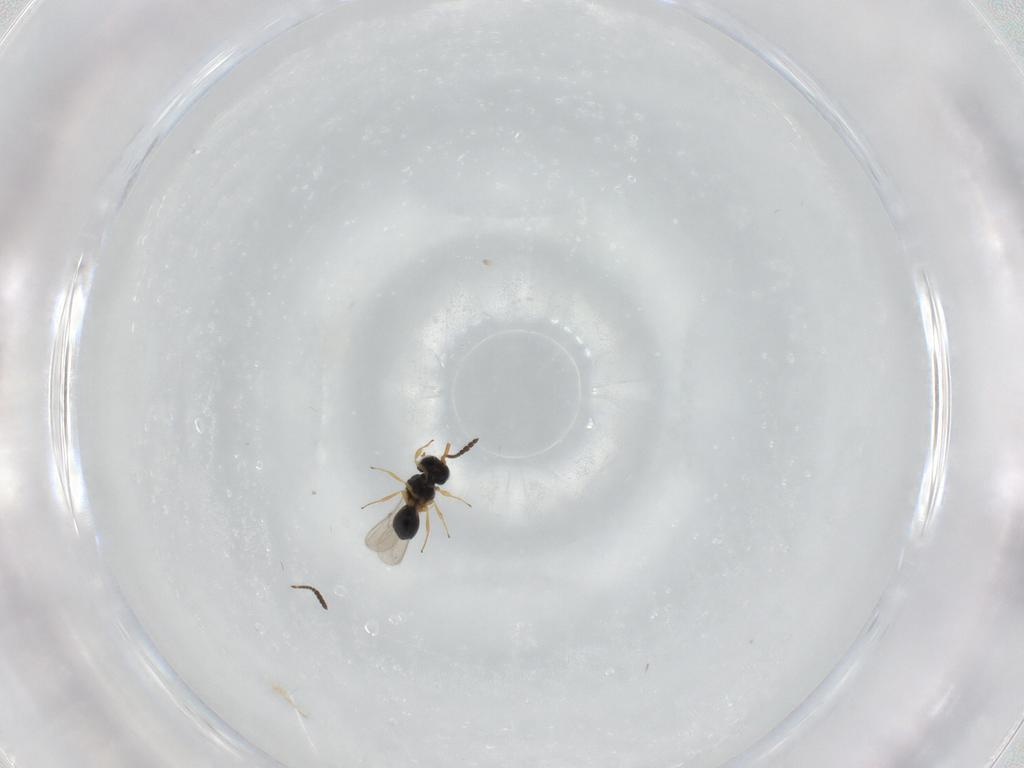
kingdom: Animalia
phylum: Arthropoda
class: Insecta
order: Hymenoptera
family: Scelionidae
